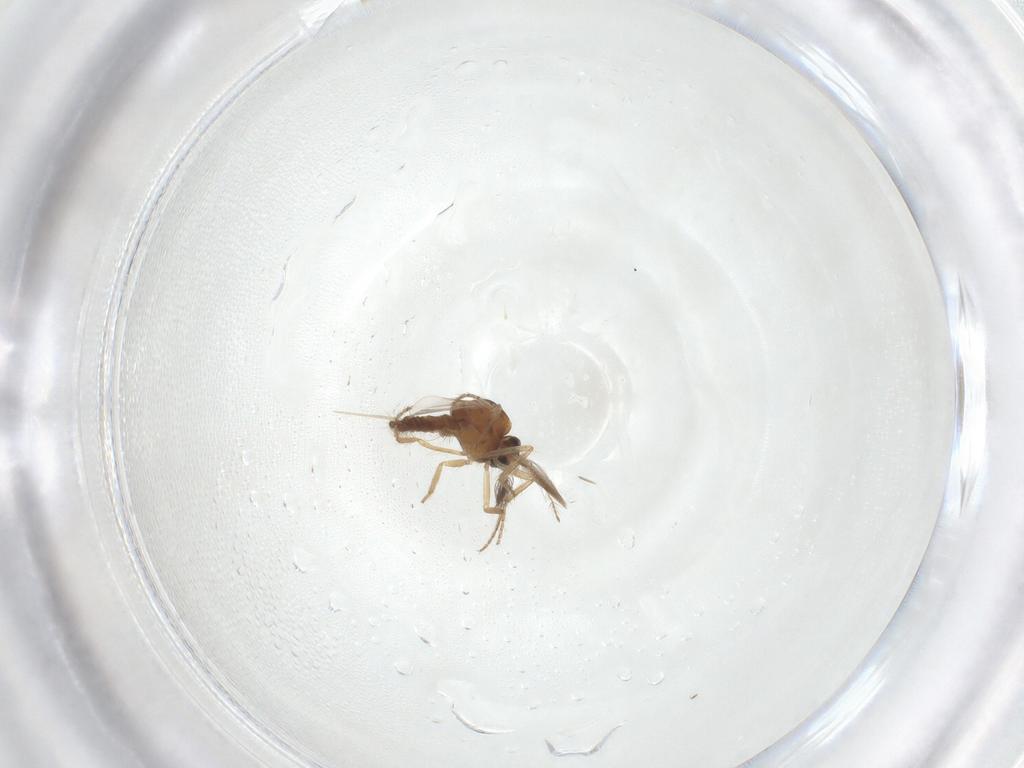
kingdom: Animalia
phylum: Arthropoda
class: Insecta
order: Diptera
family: Ceratopogonidae
